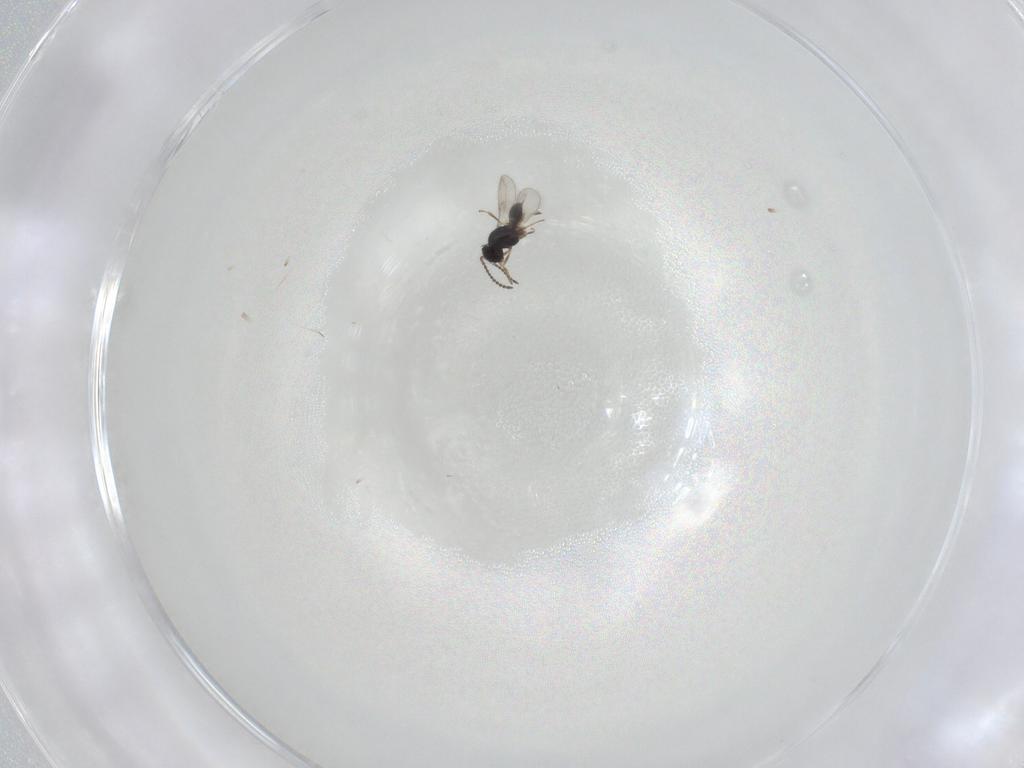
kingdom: Animalia
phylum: Arthropoda
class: Insecta
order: Hymenoptera
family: Scelionidae
